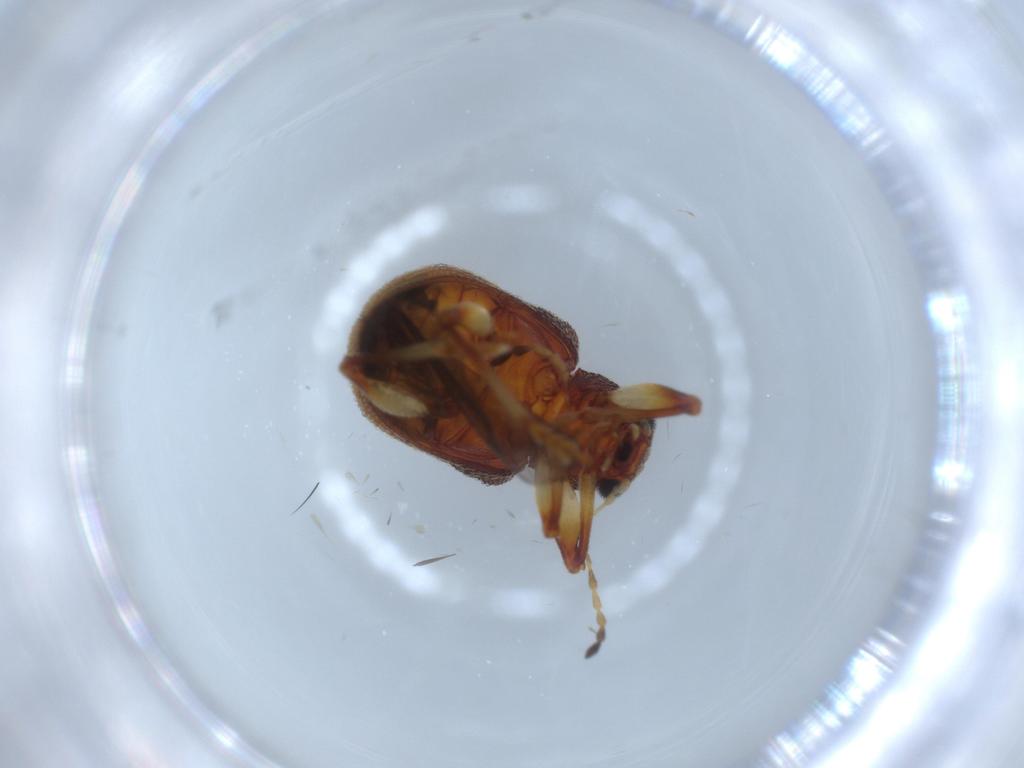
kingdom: Animalia
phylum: Arthropoda
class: Insecta
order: Coleoptera
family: Chrysomelidae
